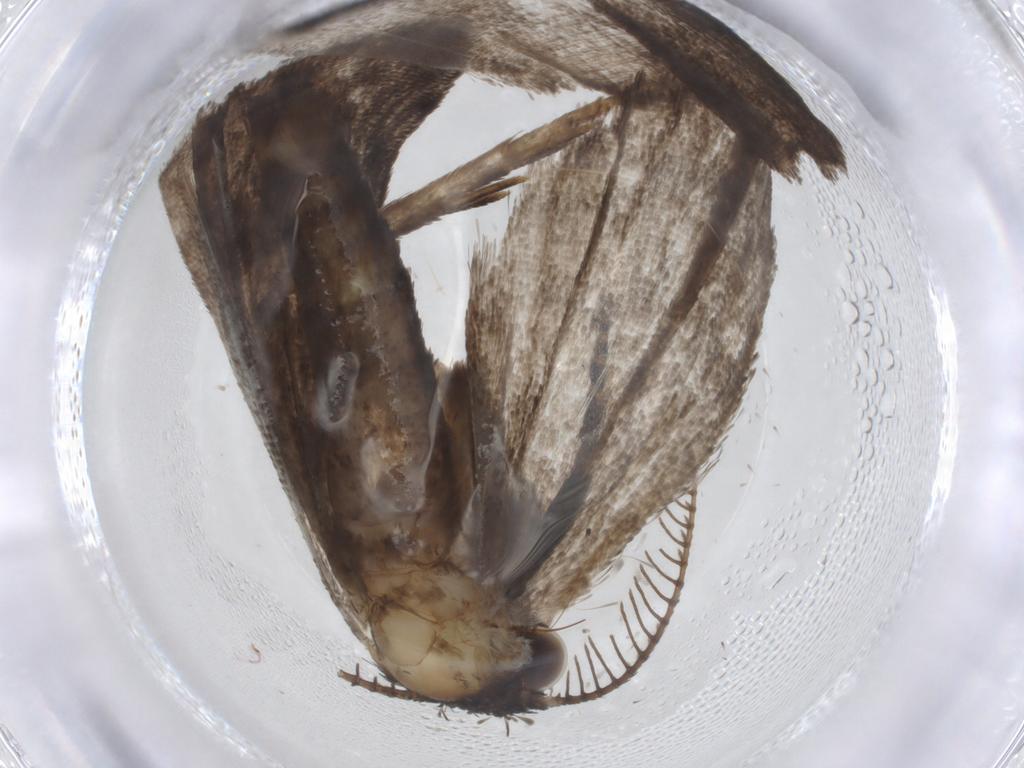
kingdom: Animalia
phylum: Arthropoda
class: Insecta
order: Lepidoptera
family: Erebidae
